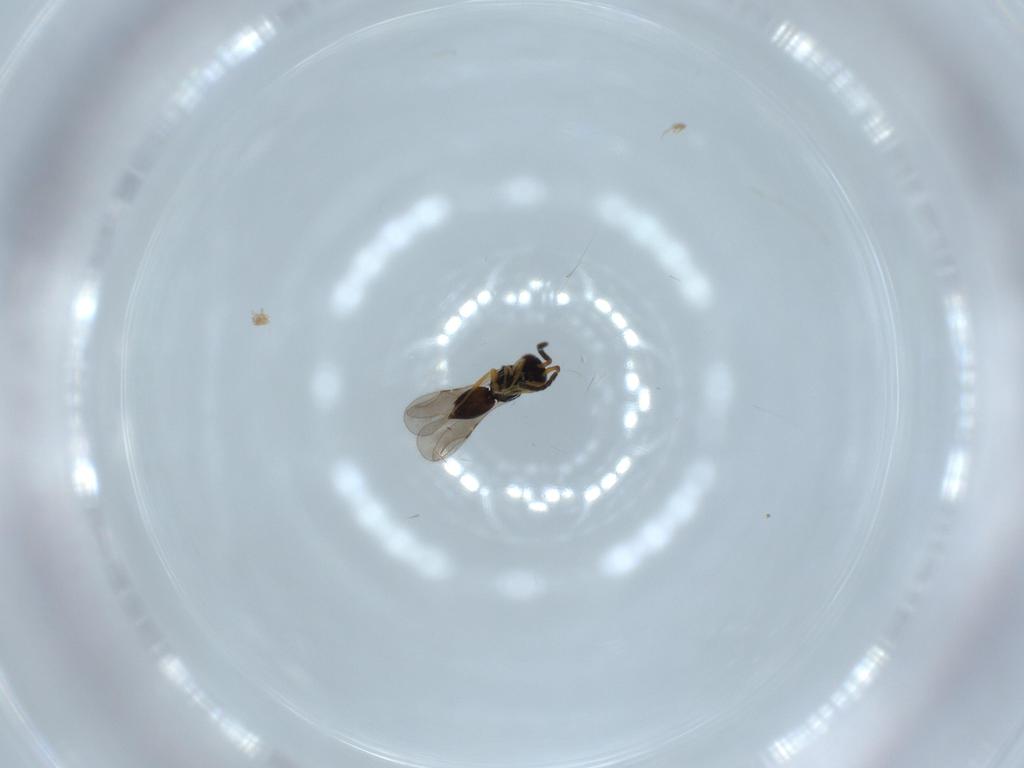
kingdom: Animalia
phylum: Arthropoda
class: Insecta
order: Hymenoptera
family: Ceraphronidae
